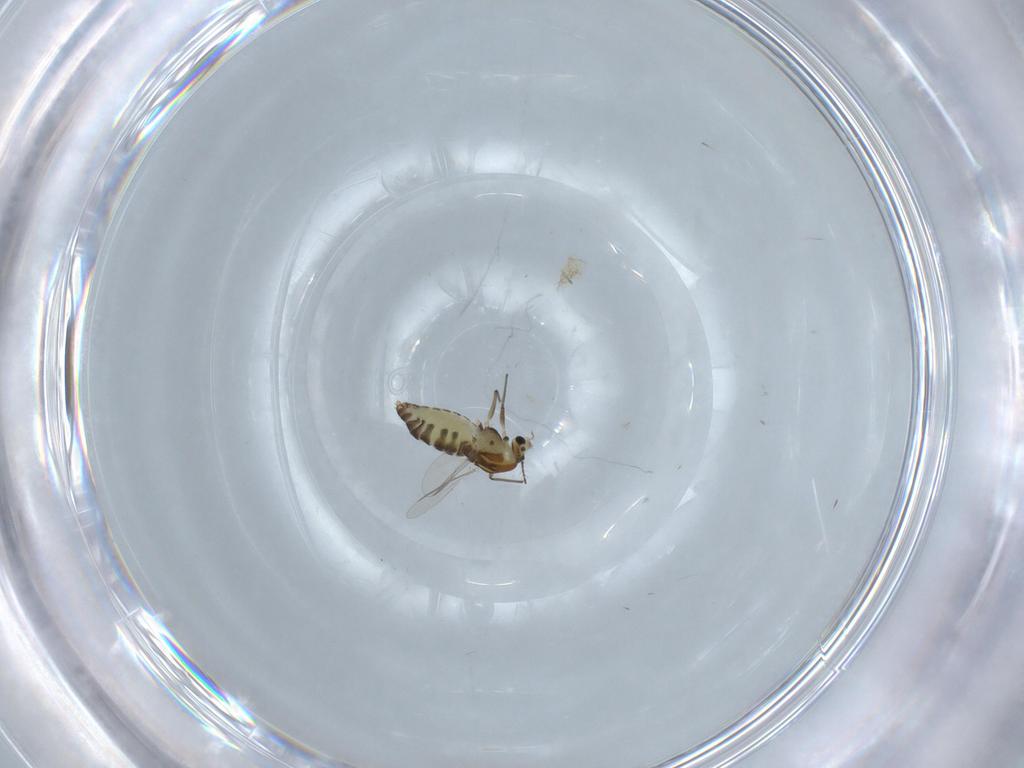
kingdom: Animalia
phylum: Arthropoda
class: Insecta
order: Diptera
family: Chironomidae
